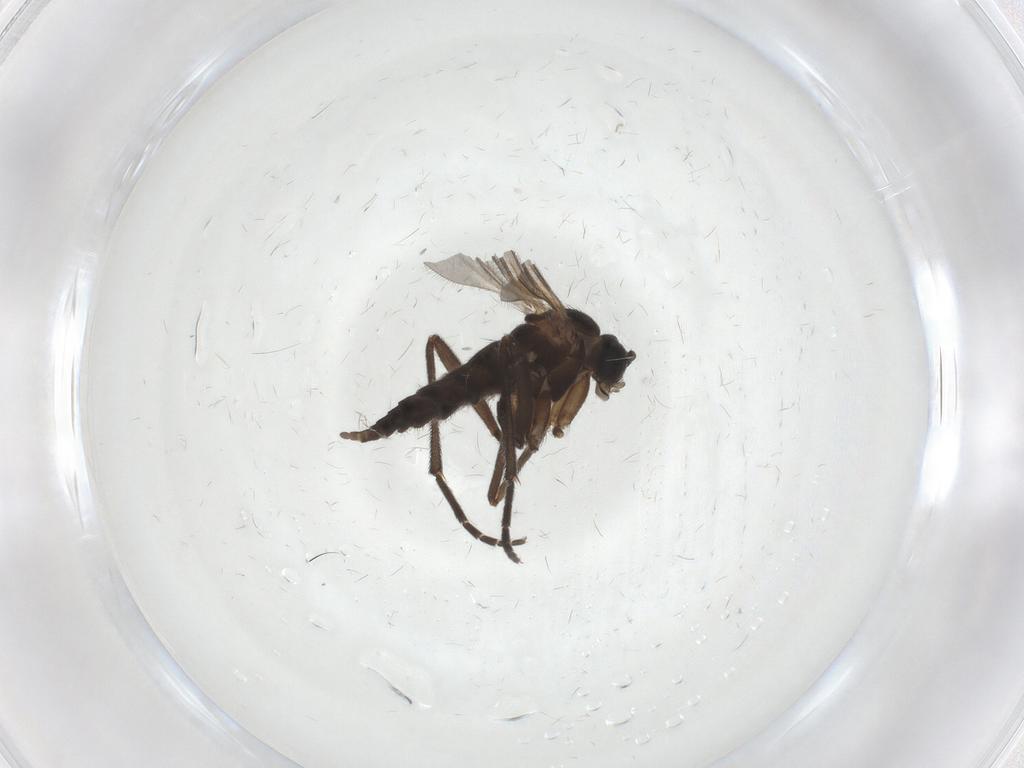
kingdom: Animalia
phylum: Arthropoda
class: Insecta
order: Diptera
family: Sciaridae
